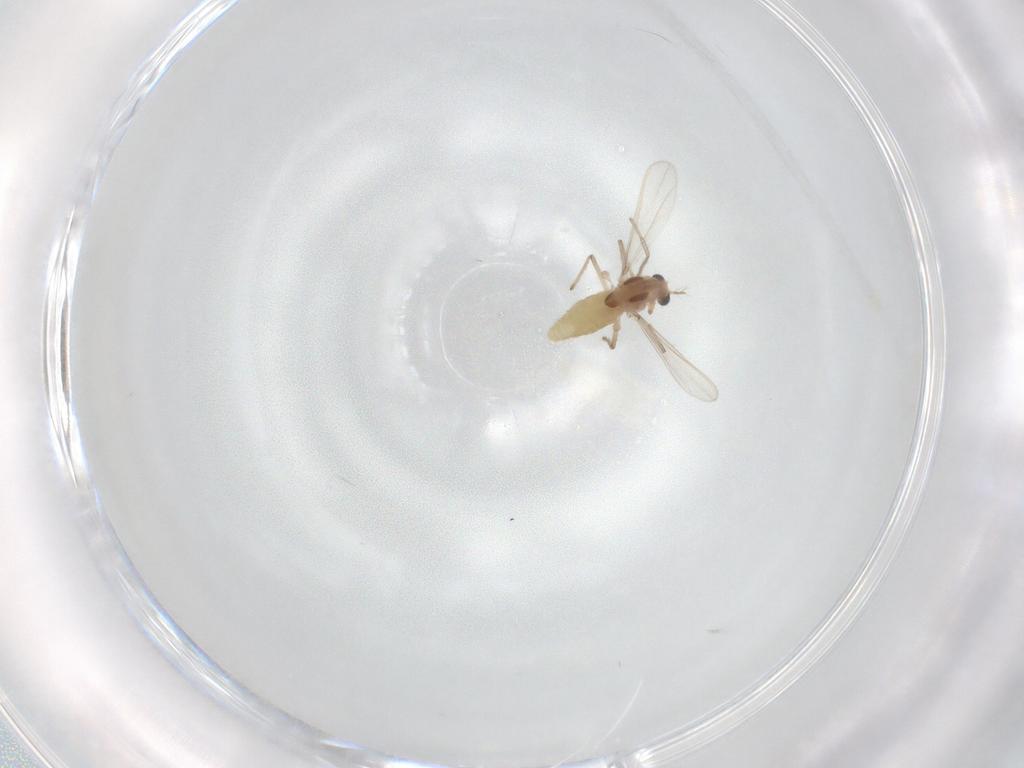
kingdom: Animalia
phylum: Arthropoda
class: Insecta
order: Diptera
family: Chironomidae
